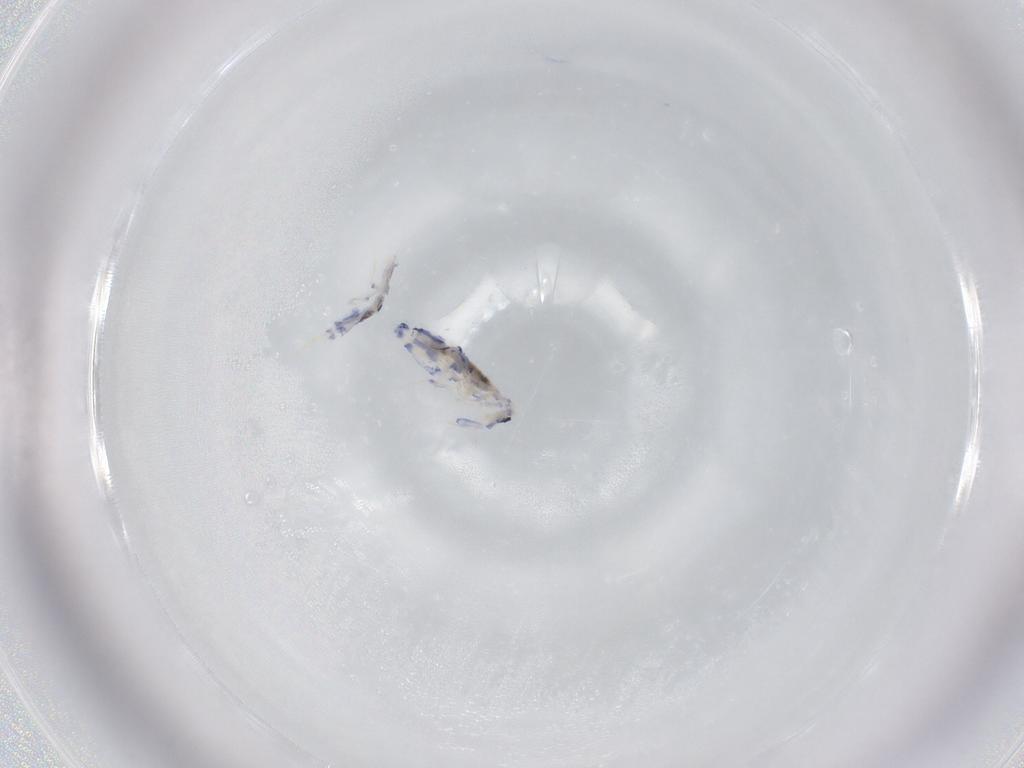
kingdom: Animalia
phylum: Arthropoda
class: Collembola
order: Entomobryomorpha
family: Entomobryidae
